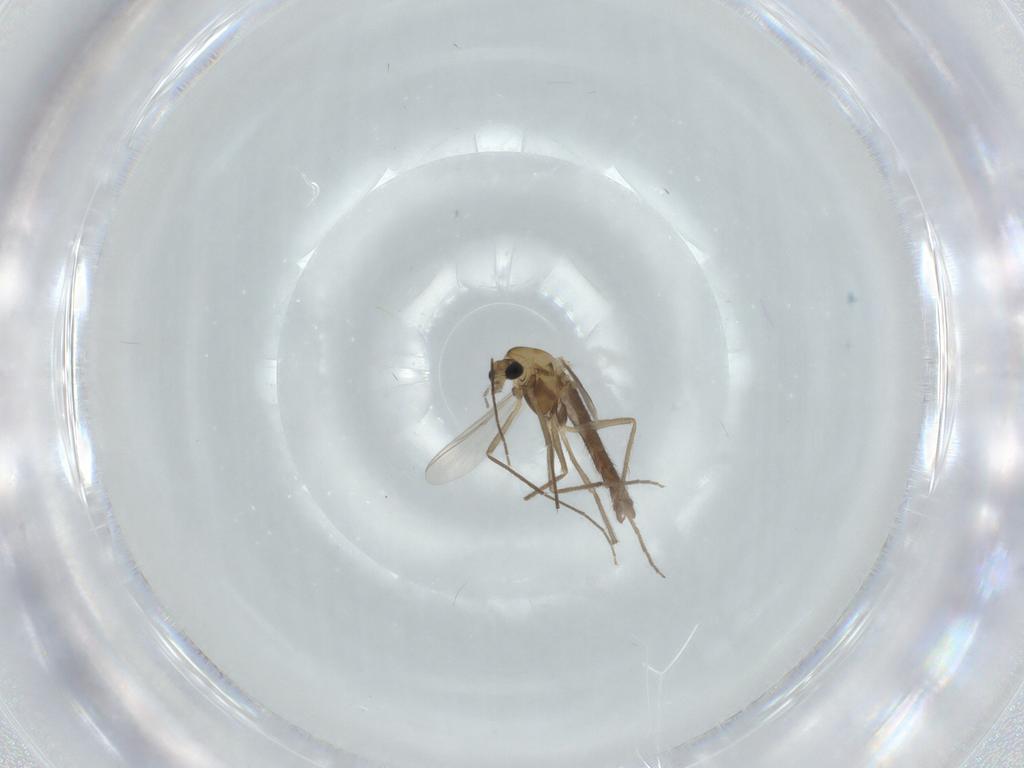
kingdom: Animalia
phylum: Arthropoda
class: Insecta
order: Diptera
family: Chironomidae
